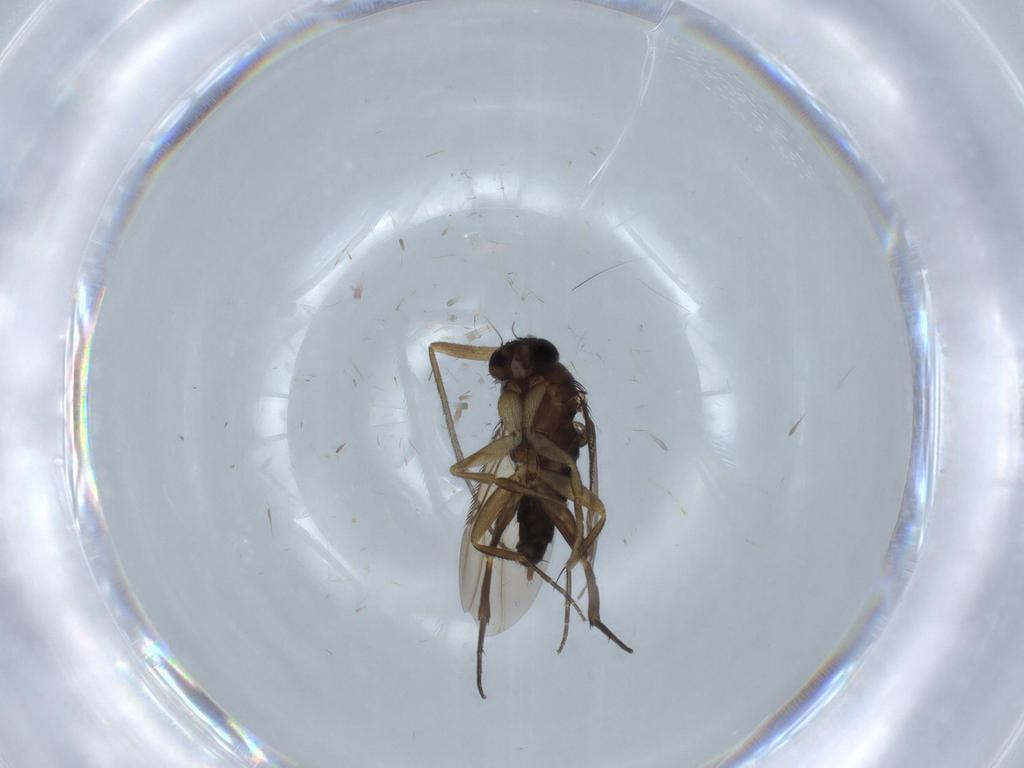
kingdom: Animalia
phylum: Arthropoda
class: Insecta
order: Diptera
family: Phoridae
